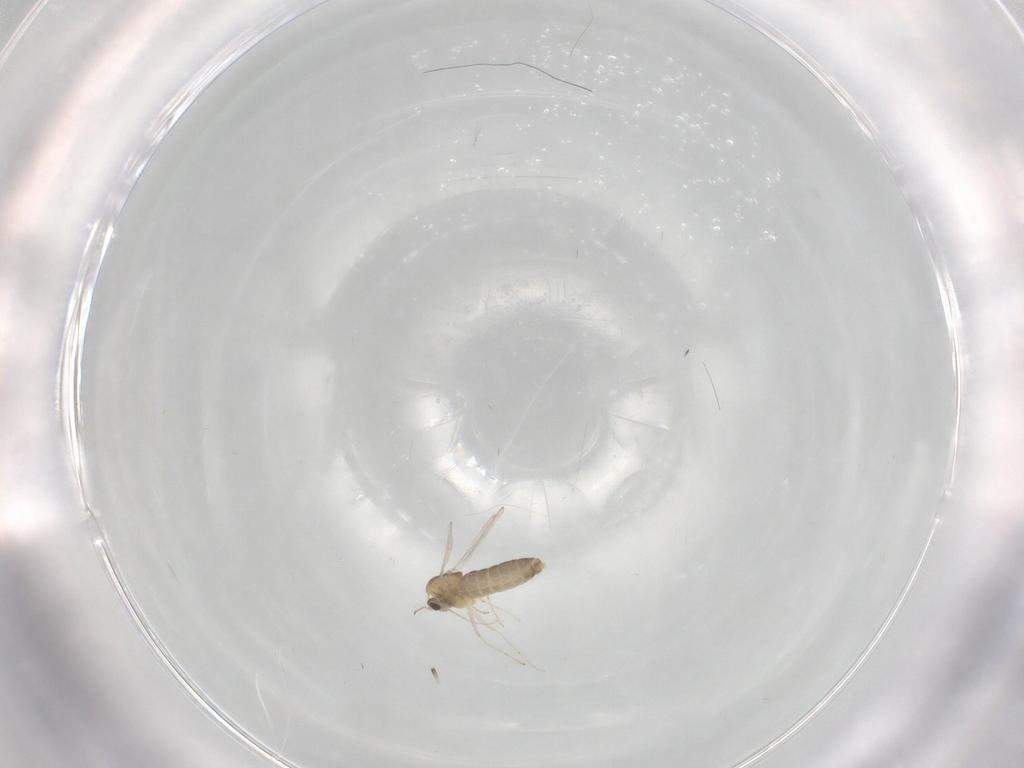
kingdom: Animalia
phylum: Arthropoda
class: Insecta
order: Diptera
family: Chironomidae
